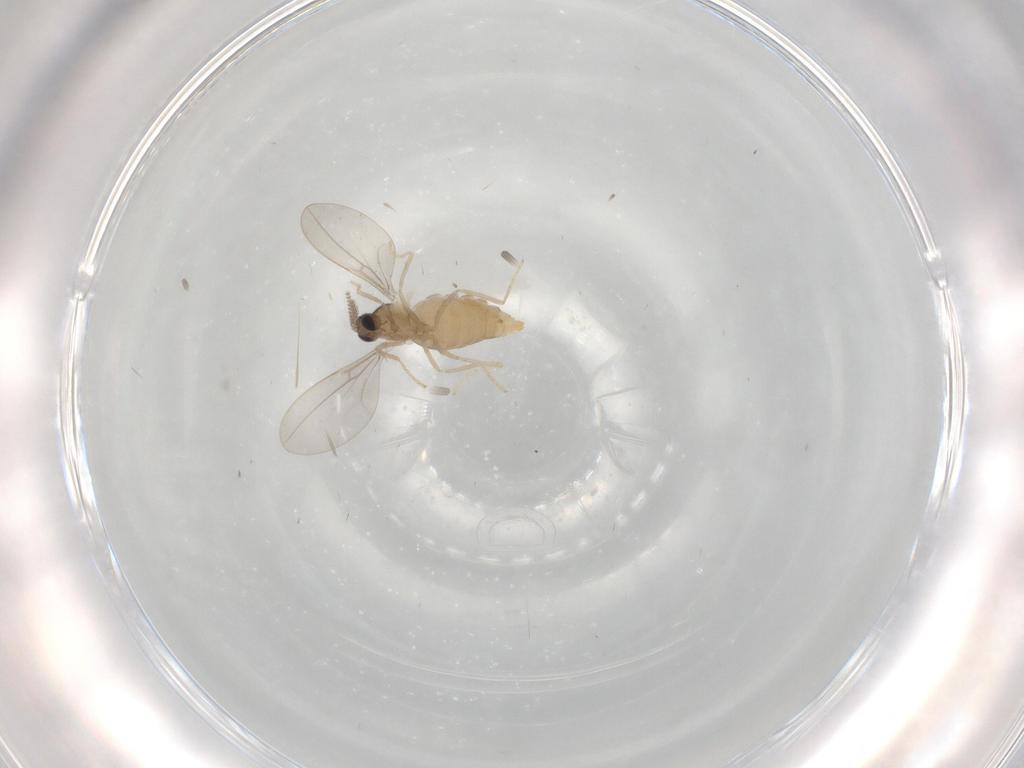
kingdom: Animalia
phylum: Arthropoda
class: Insecta
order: Diptera
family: Cecidomyiidae
